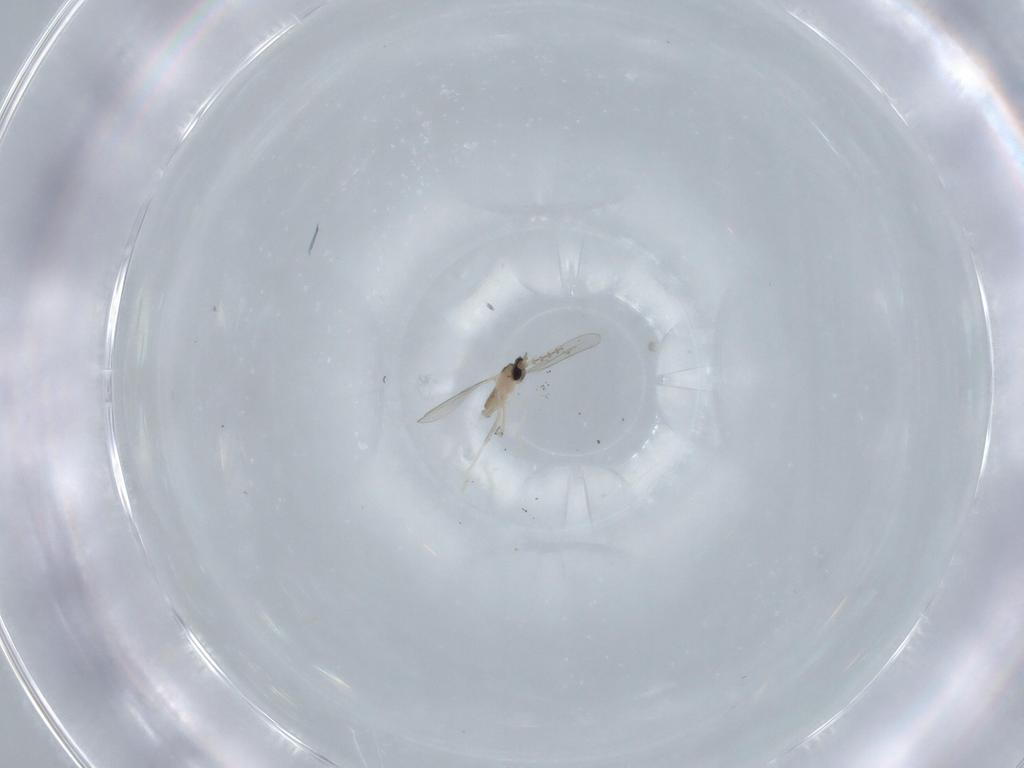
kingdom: Animalia
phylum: Arthropoda
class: Insecta
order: Diptera
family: Cecidomyiidae
